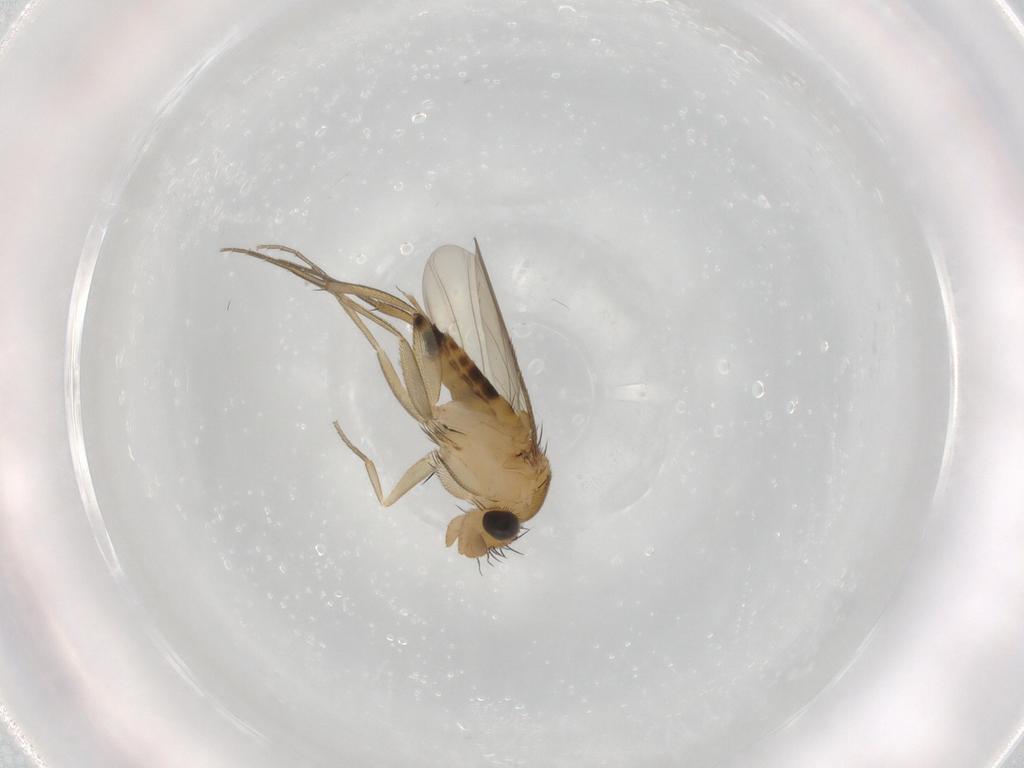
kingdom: Animalia
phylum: Arthropoda
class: Insecta
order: Diptera
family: Phoridae
